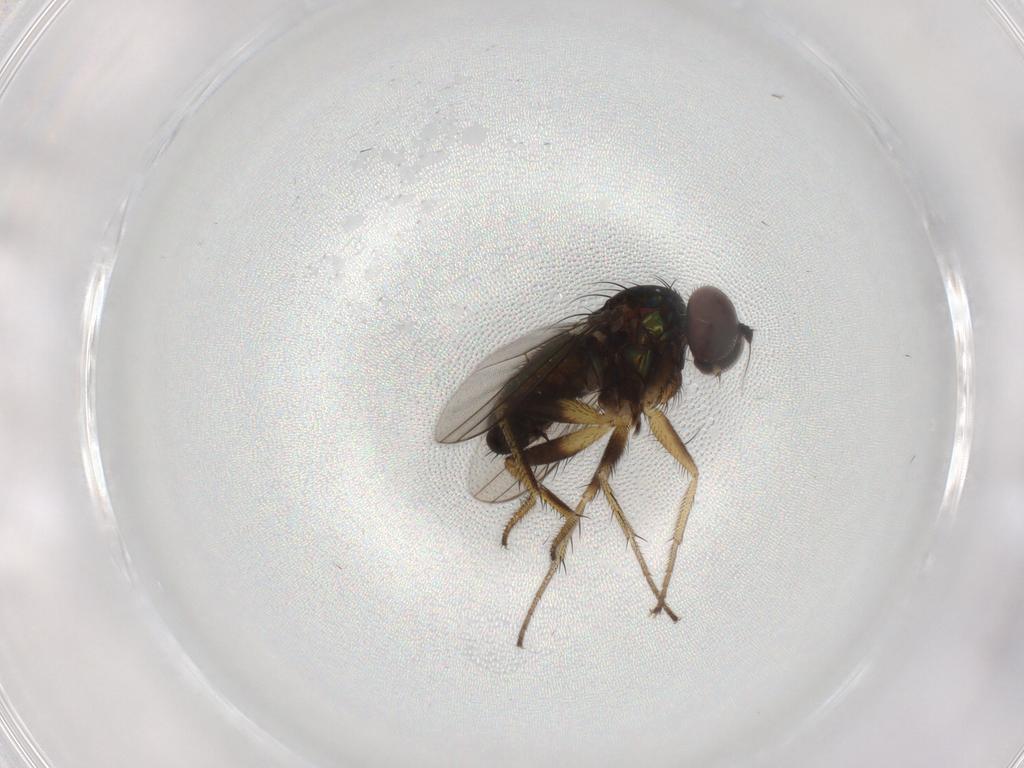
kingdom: Animalia
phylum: Arthropoda
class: Insecta
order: Diptera
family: Dolichopodidae
